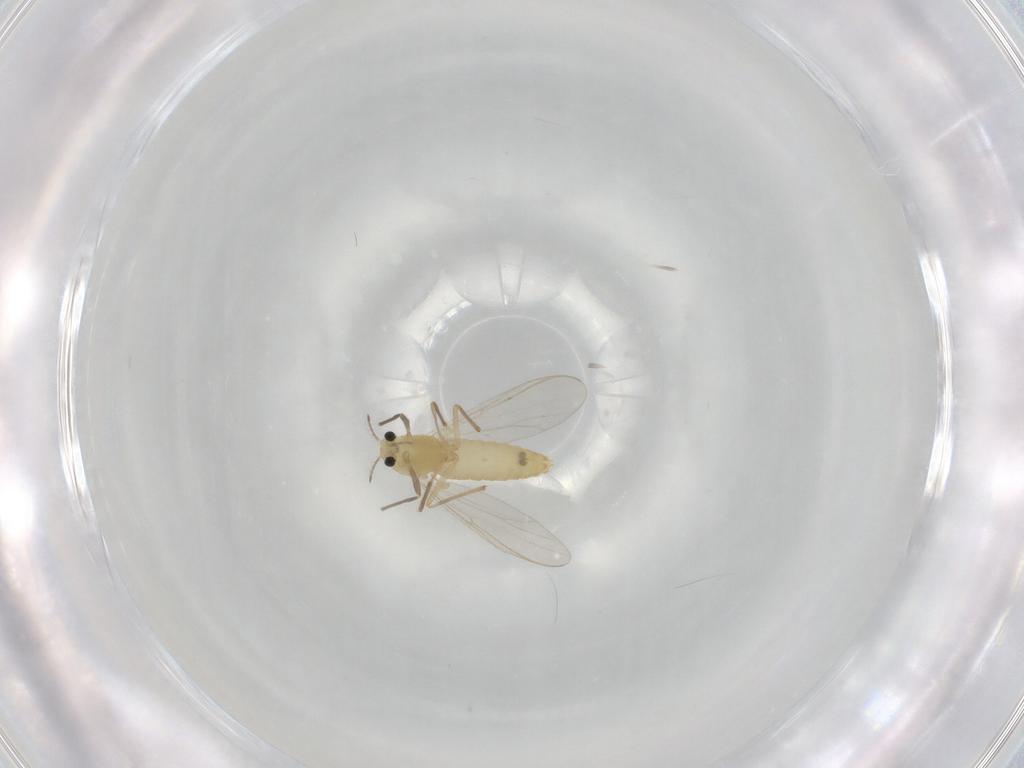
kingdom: Animalia
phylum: Arthropoda
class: Insecta
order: Diptera
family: Chironomidae
